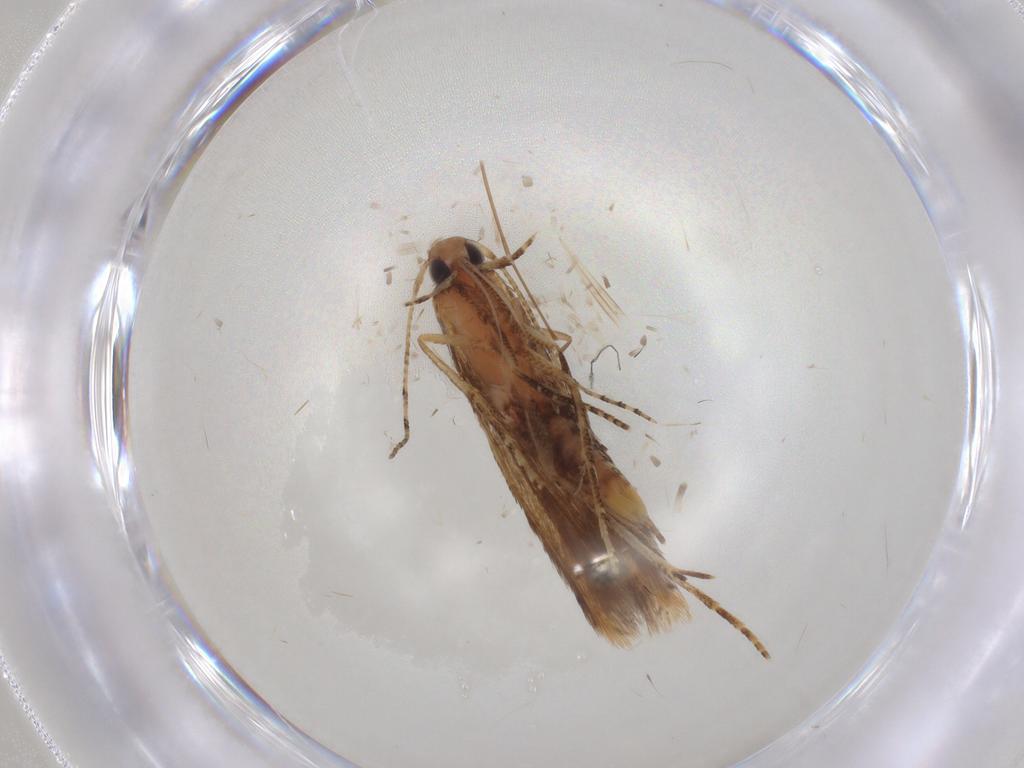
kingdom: Animalia
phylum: Arthropoda
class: Insecta
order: Lepidoptera
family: Crambidae
